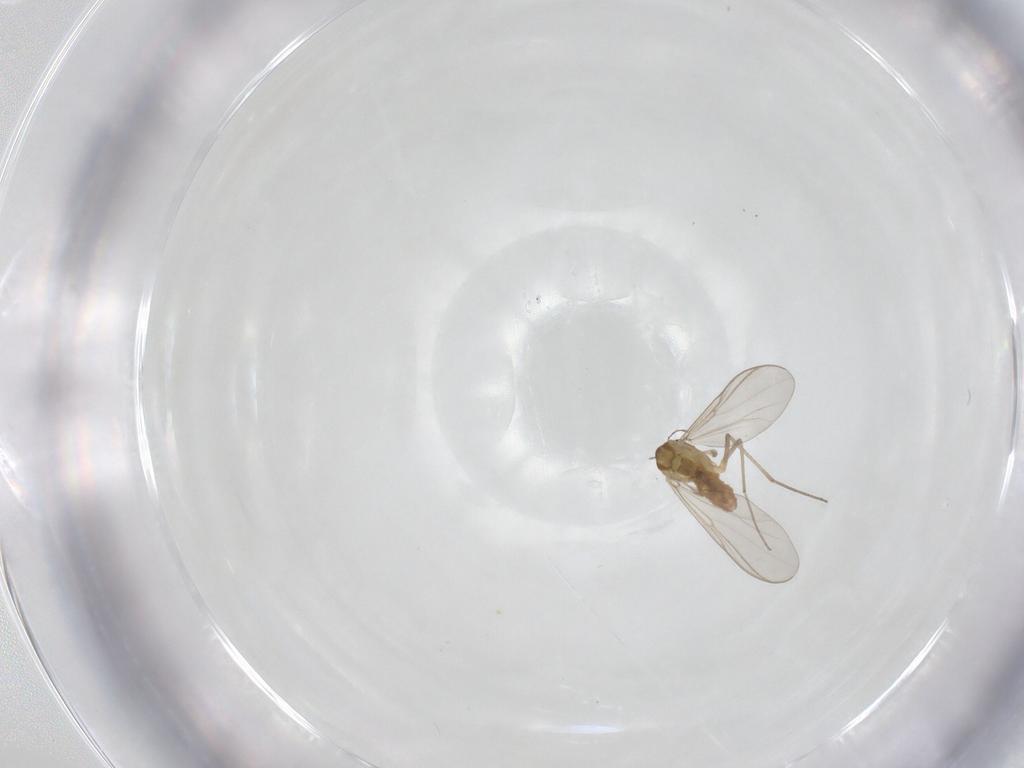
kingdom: Animalia
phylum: Arthropoda
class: Insecta
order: Diptera
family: Chironomidae
